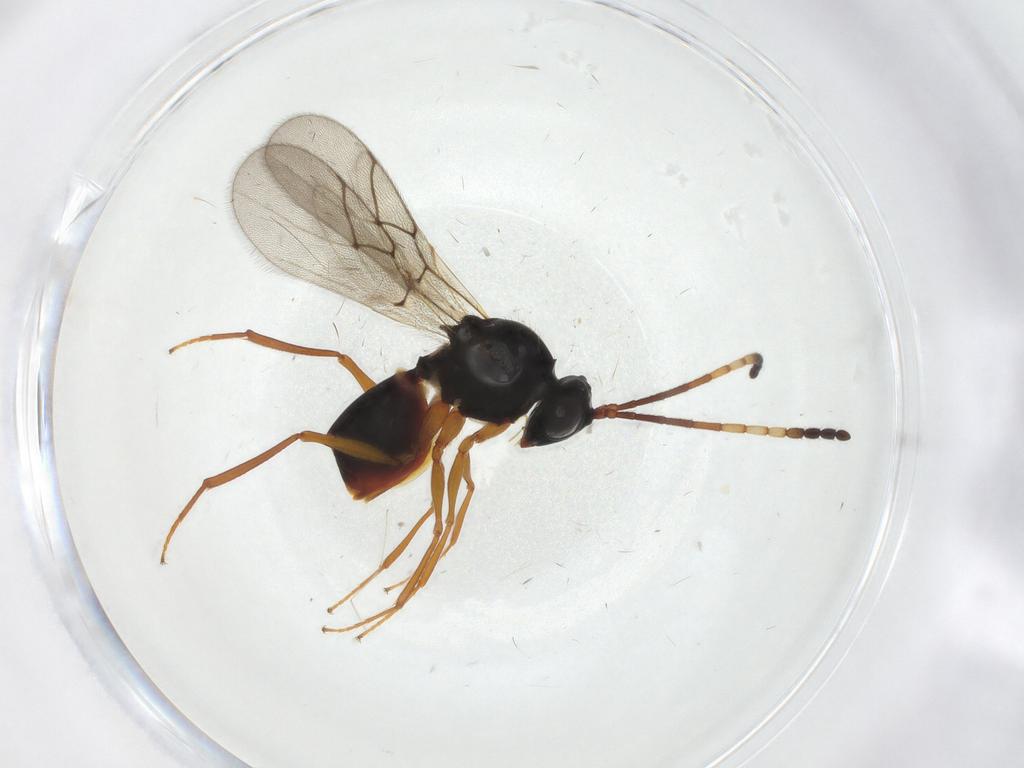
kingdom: Animalia
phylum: Arthropoda
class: Insecta
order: Hymenoptera
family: Figitidae
